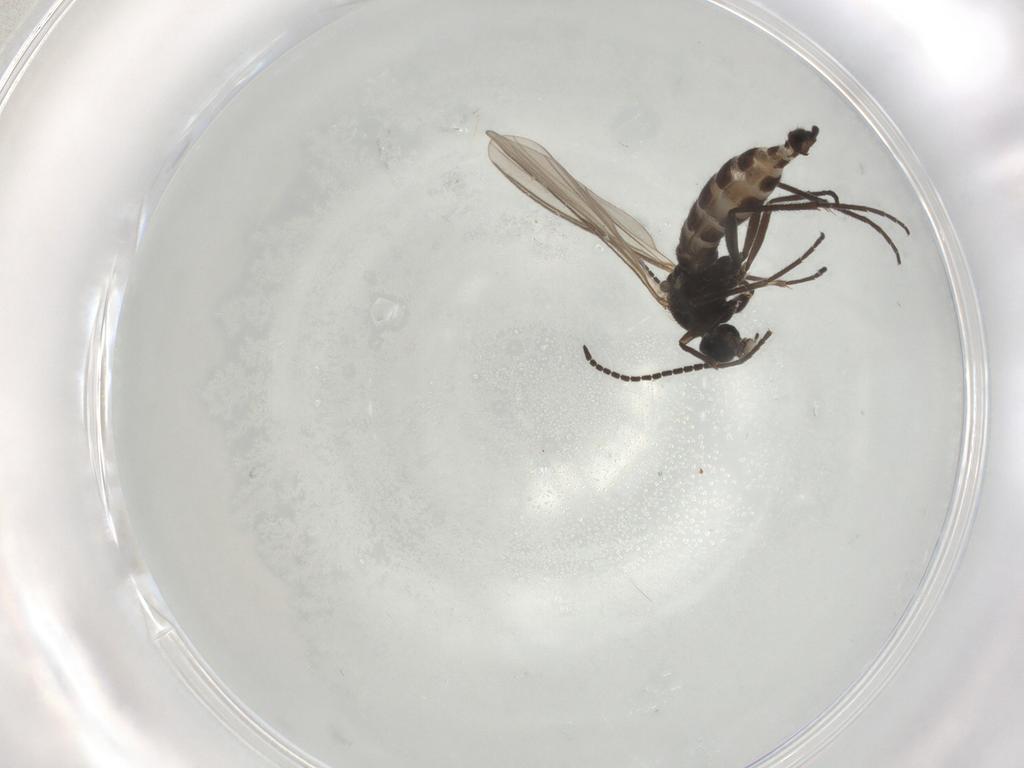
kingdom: Animalia
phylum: Arthropoda
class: Insecta
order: Diptera
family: Sciaridae
